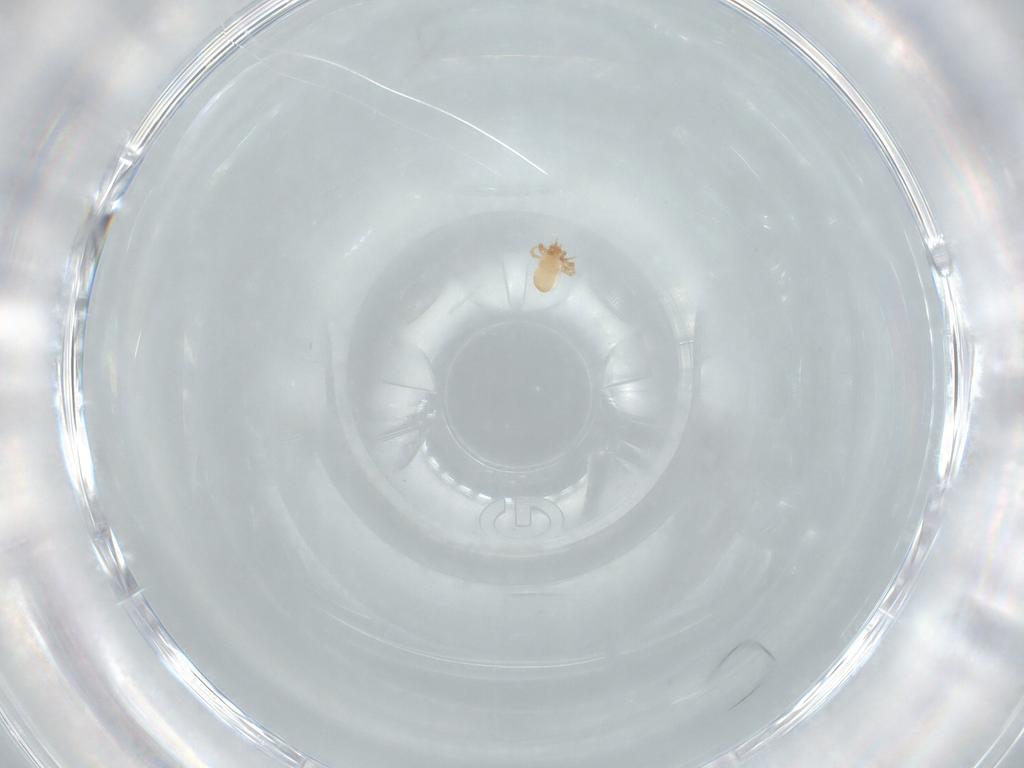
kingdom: Animalia
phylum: Arthropoda
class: Arachnida
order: Mesostigmata
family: Ascidae
